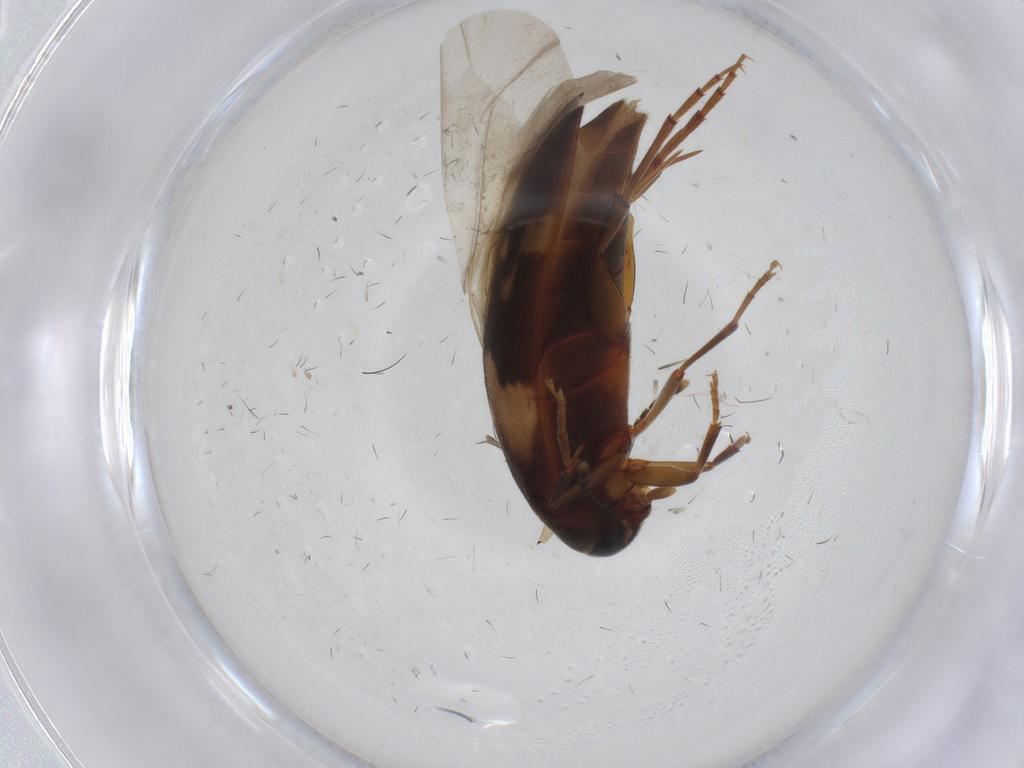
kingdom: Animalia
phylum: Arthropoda
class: Insecta
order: Coleoptera
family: Melandryidae
